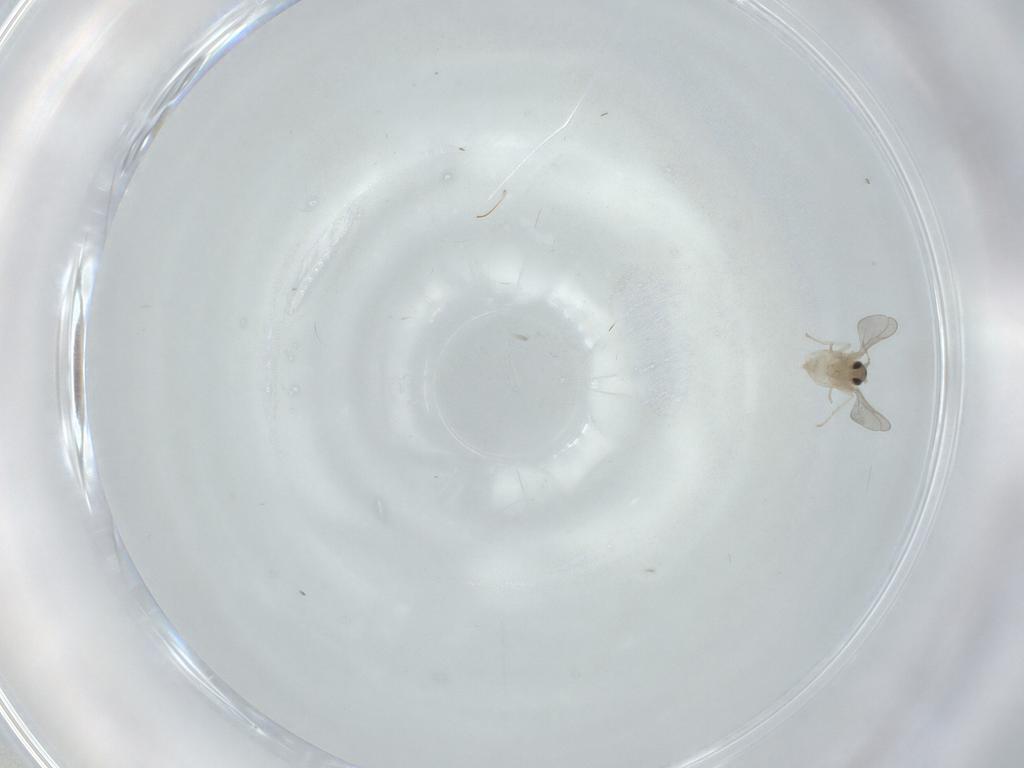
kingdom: Animalia
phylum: Arthropoda
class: Insecta
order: Diptera
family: Cecidomyiidae
